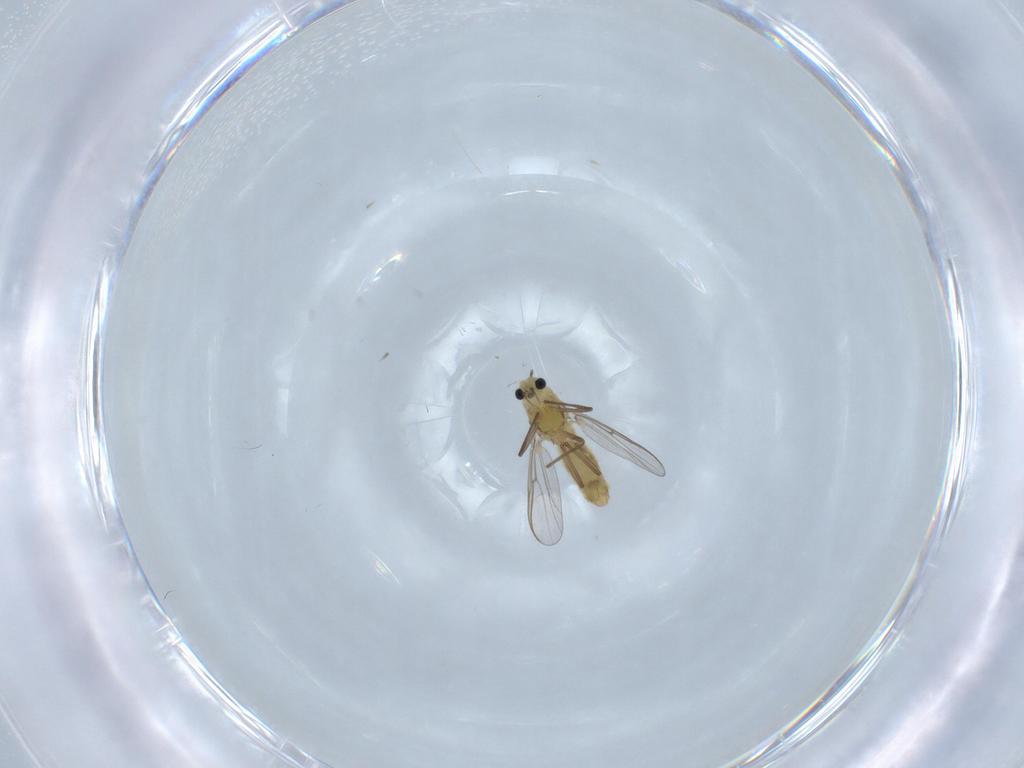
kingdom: Animalia
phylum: Arthropoda
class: Insecta
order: Diptera
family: Chironomidae
